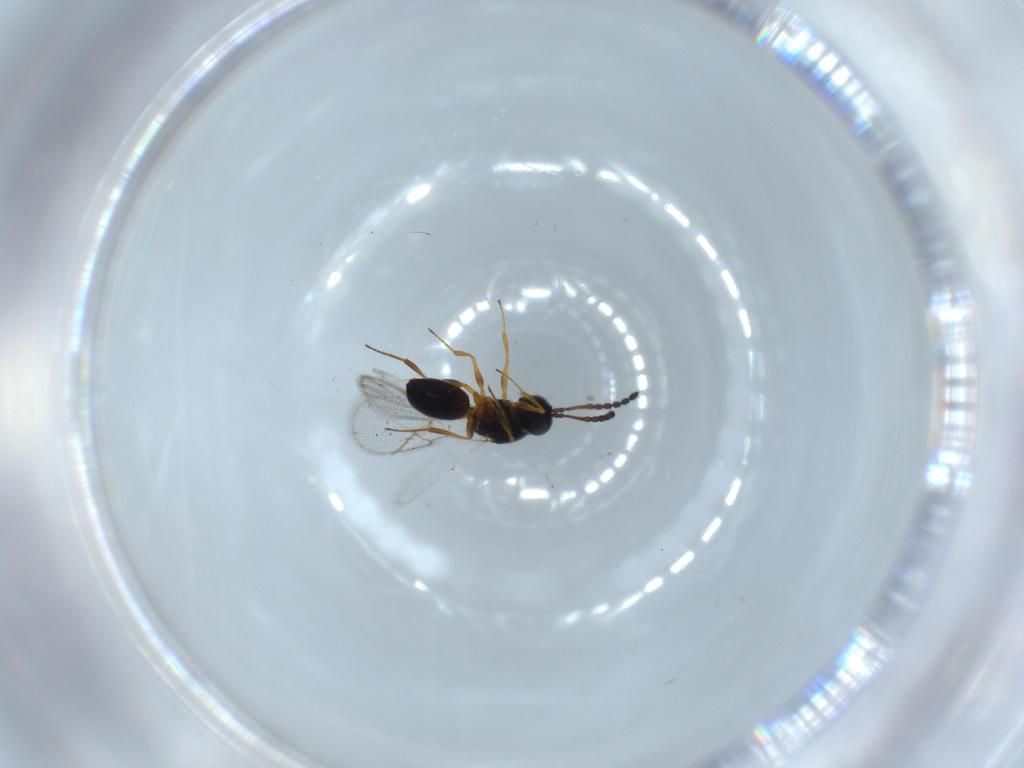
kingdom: Animalia
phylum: Arthropoda
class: Insecta
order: Hymenoptera
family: Figitidae
